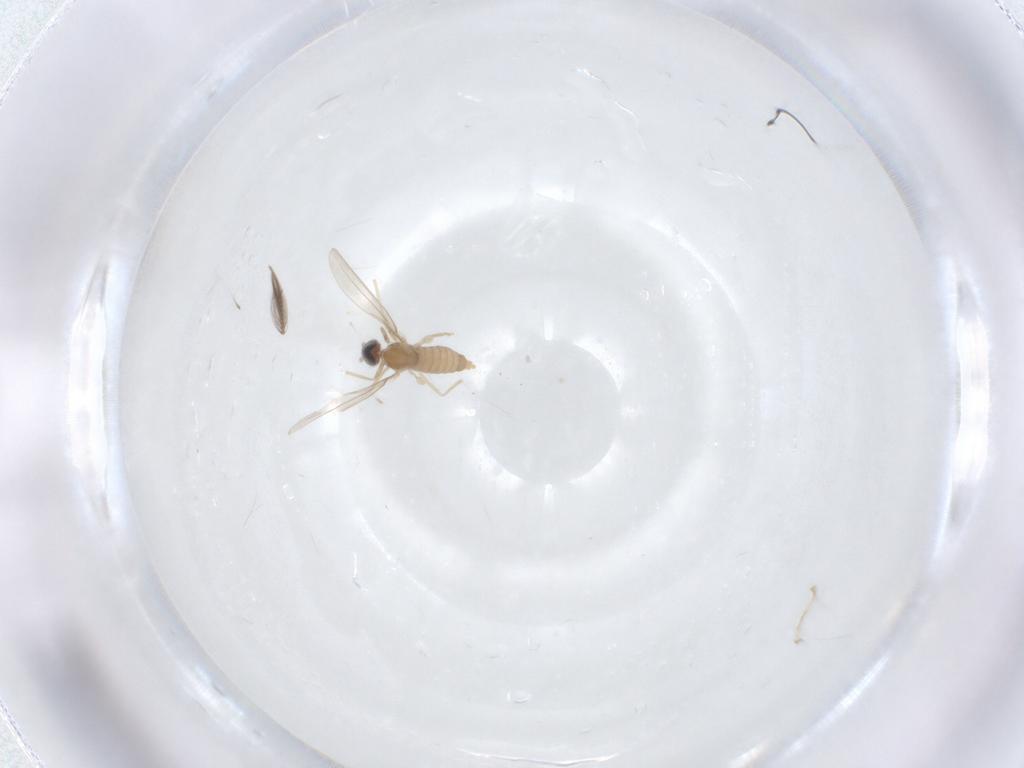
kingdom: Animalia
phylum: Arthropoda
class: Insecta
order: Diptera
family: Cecidomyiidae
